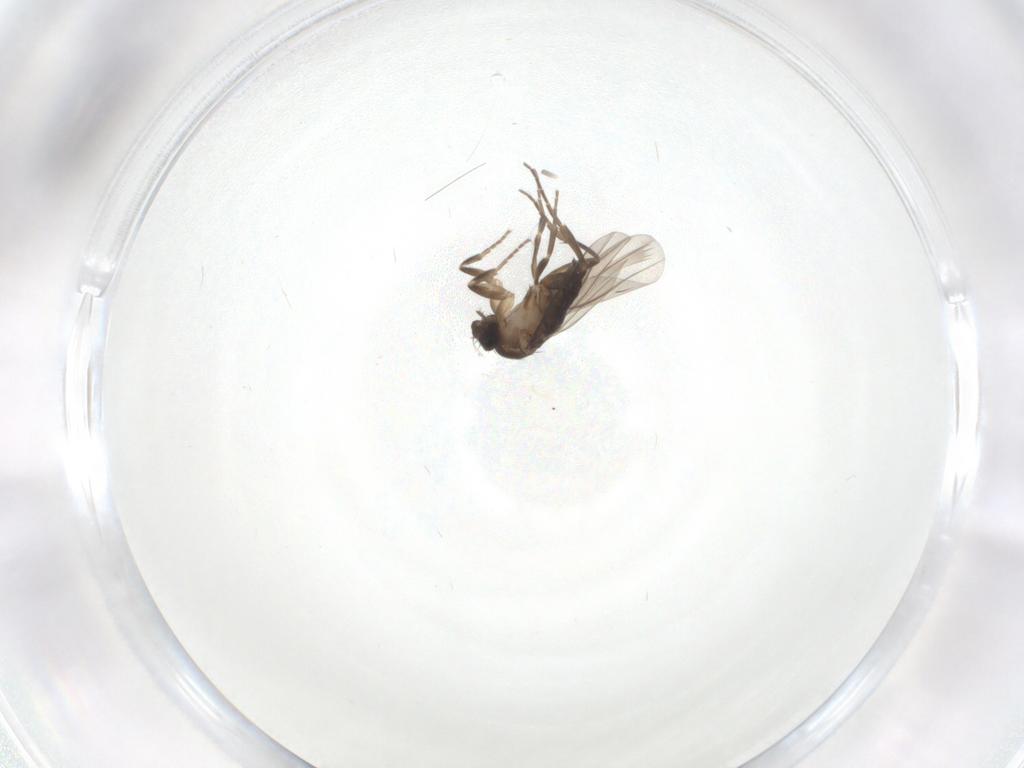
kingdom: Animalia
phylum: Arthropoda
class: Insecta
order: Diptera
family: Phoridae
